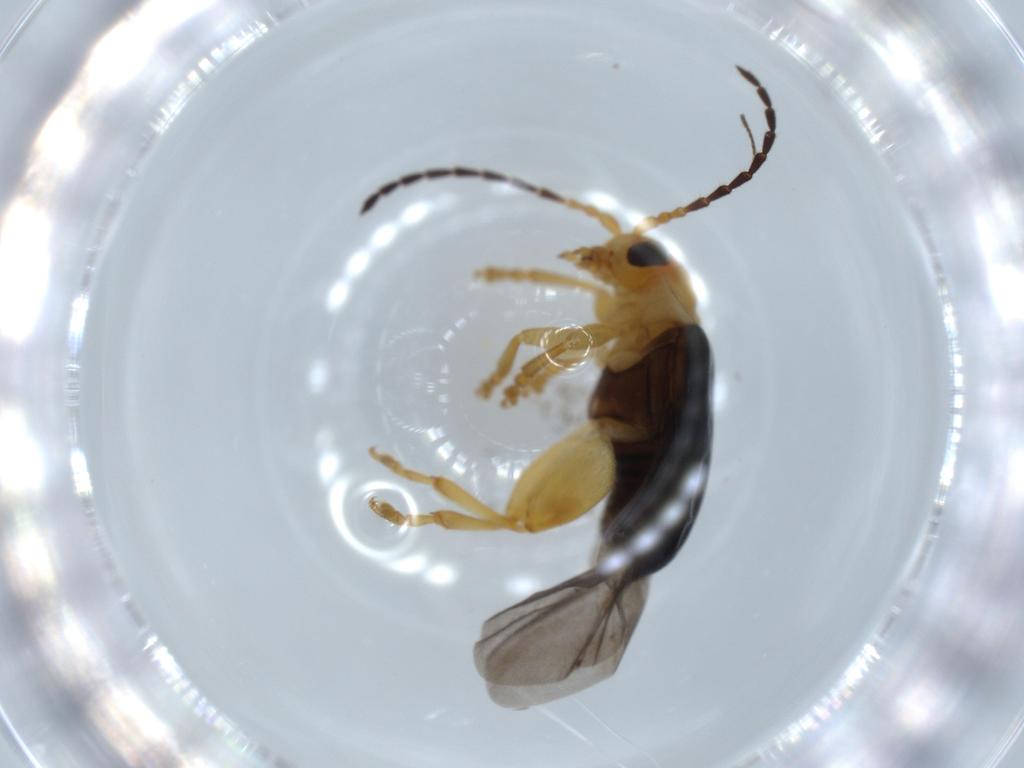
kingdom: Animalia
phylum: Arthropoda
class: Insecta
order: Coleoptera
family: Chrysomelidae
